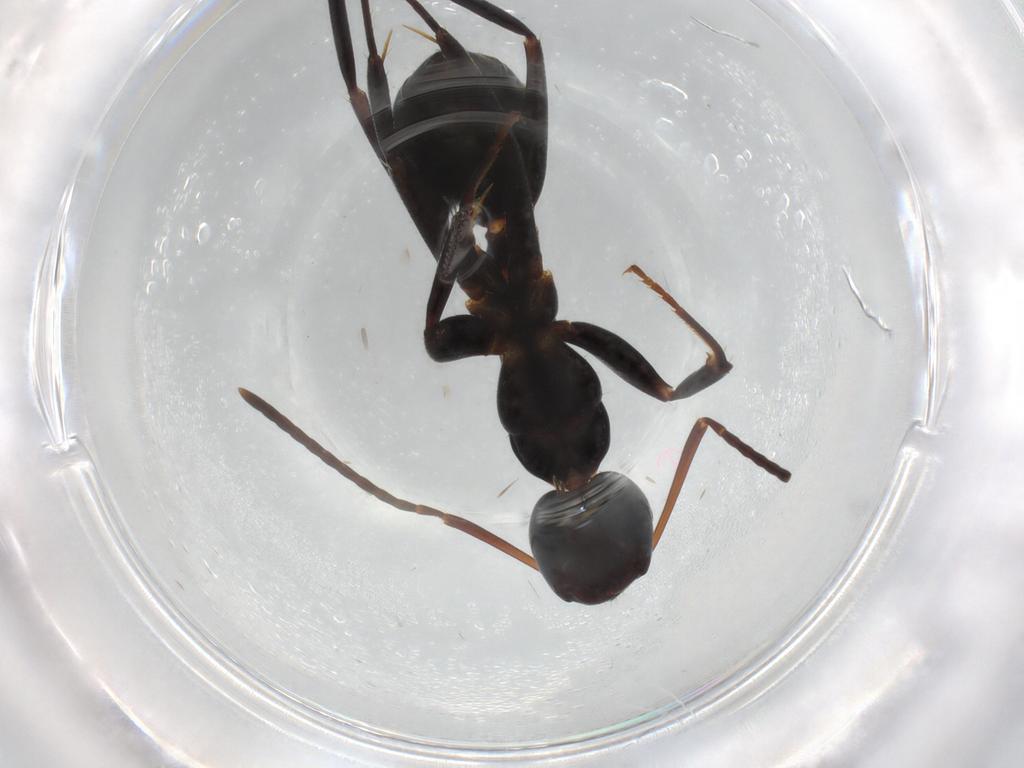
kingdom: Animalia
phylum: Arthropoda
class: Insecta
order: Hymenoptera
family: Formicidae
